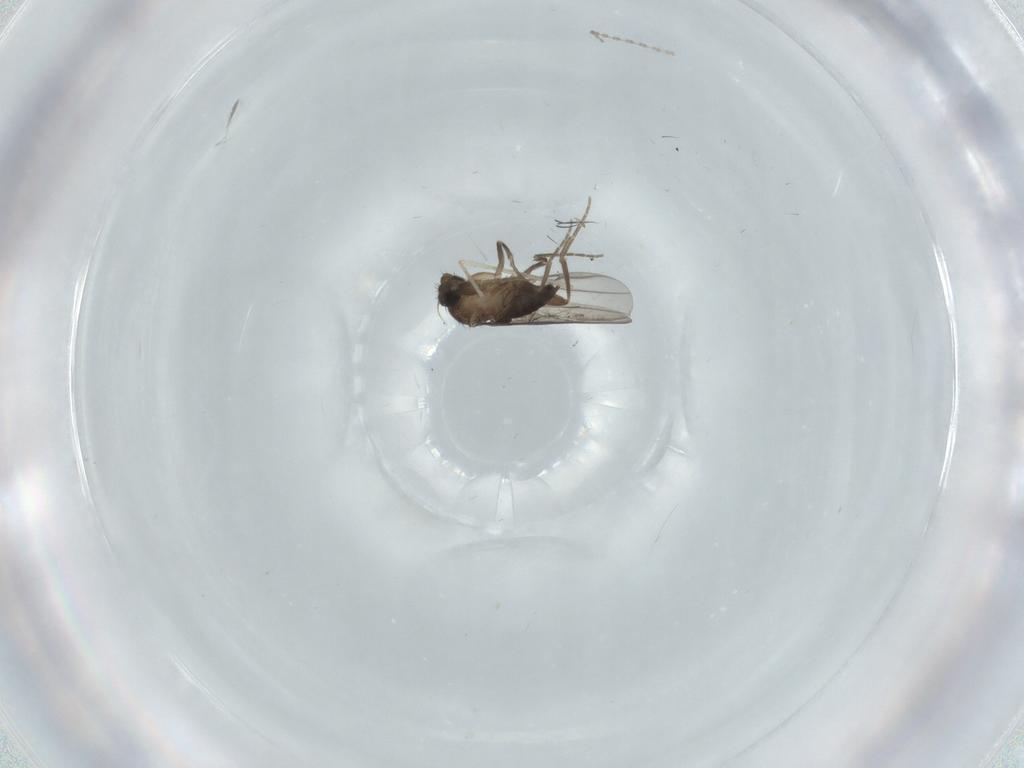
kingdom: Animalia
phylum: Arthropoda
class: Insecta
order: Diptera
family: Cecidomyiidae
